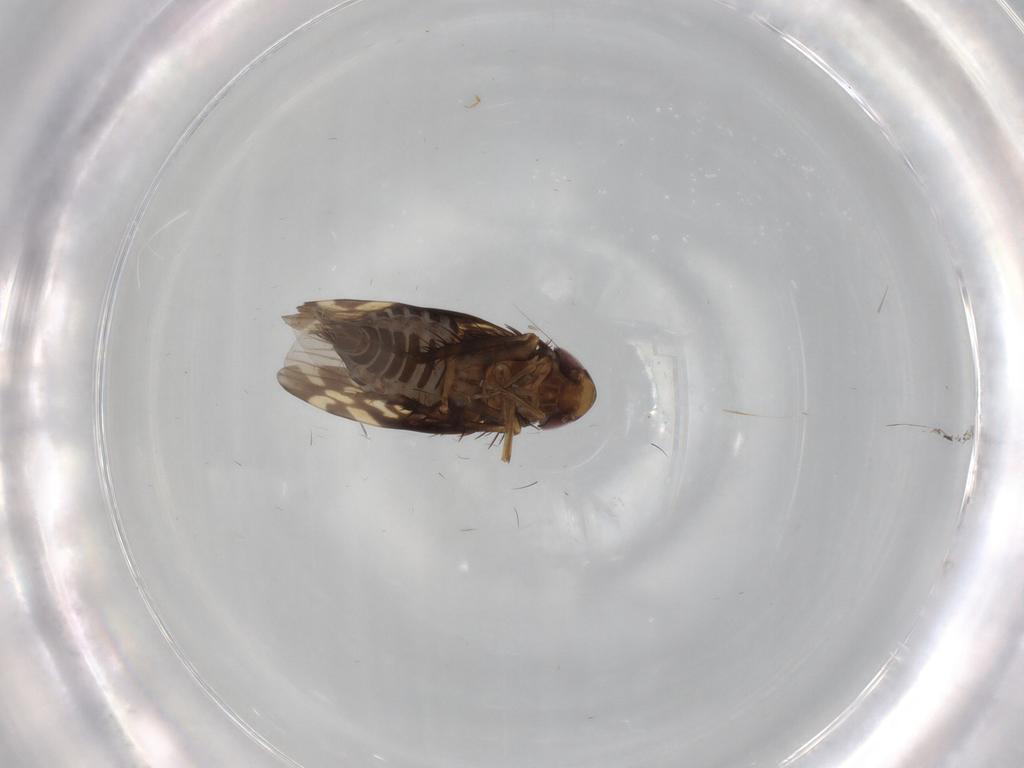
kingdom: Animalia
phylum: Arthropoda
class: Insecta
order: Hemiptera
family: Cicadellidae
